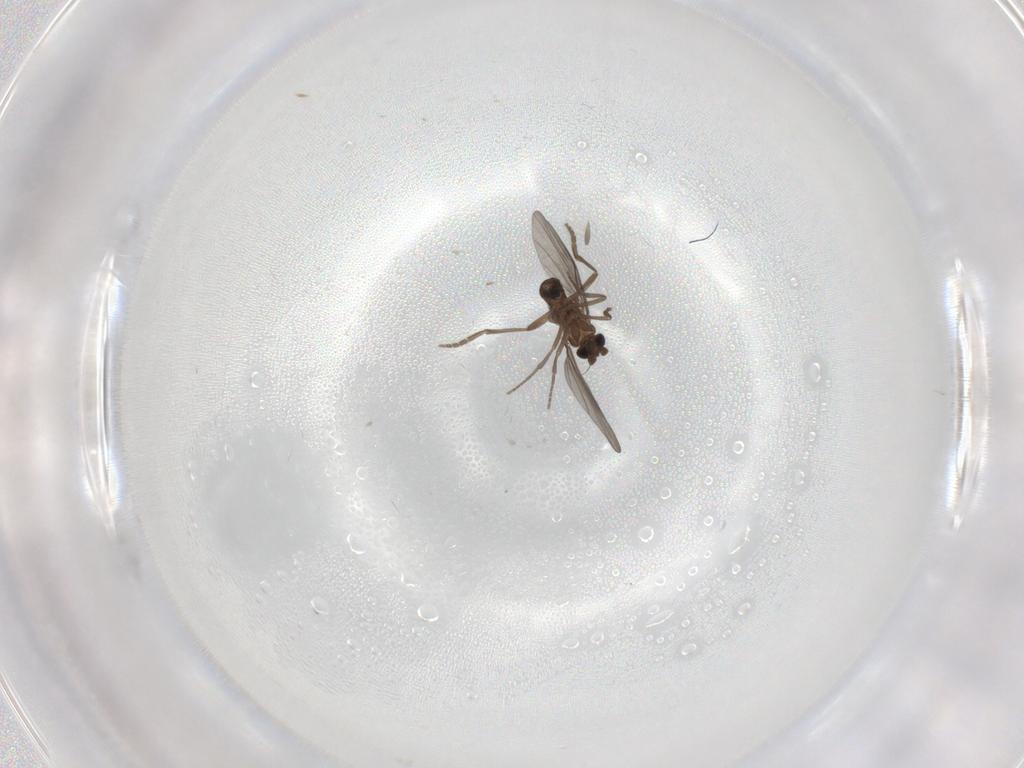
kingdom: Animalia
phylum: Arthropoda
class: Insecta
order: Diptera
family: Phoridae
